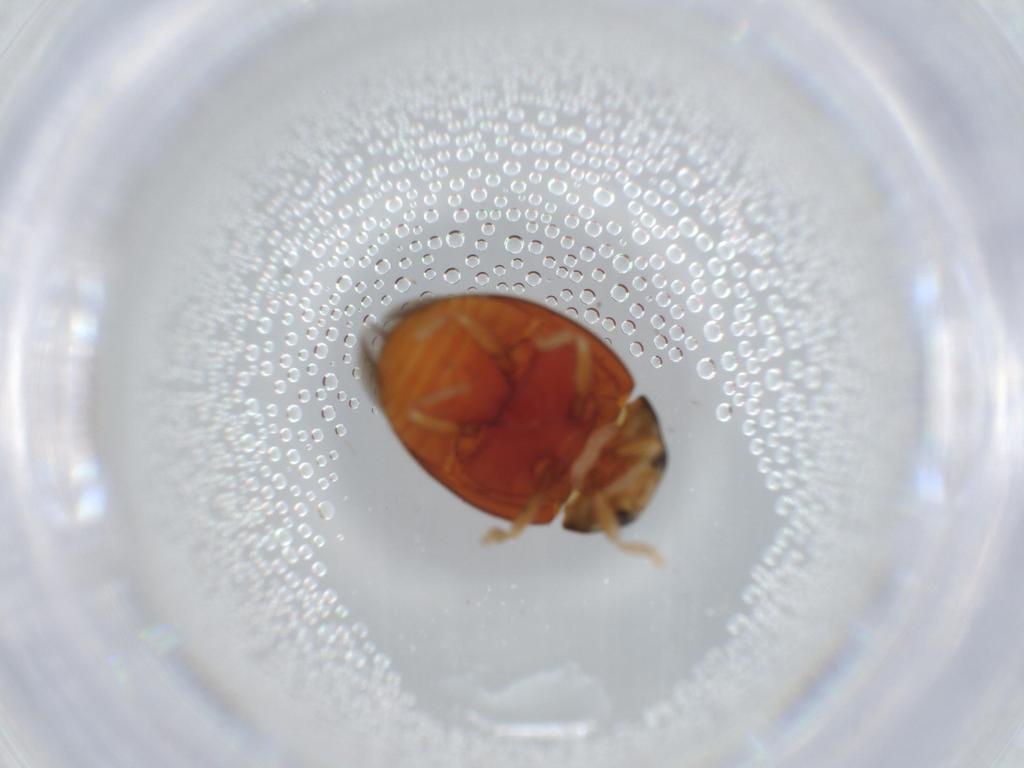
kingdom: Animalia
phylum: Arthropoda
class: Insecta
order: Coleoptera
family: Coccinellidae
